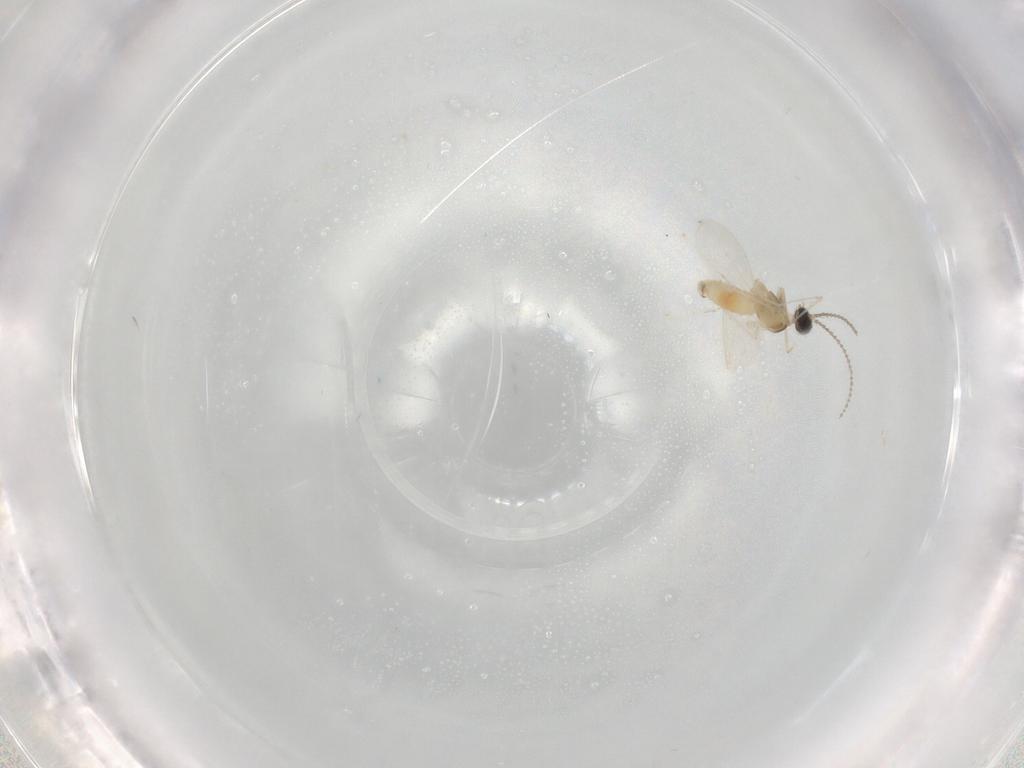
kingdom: Animalia
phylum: Arthropoda
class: Insecta
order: Diptera
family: Cecidomyiidae
